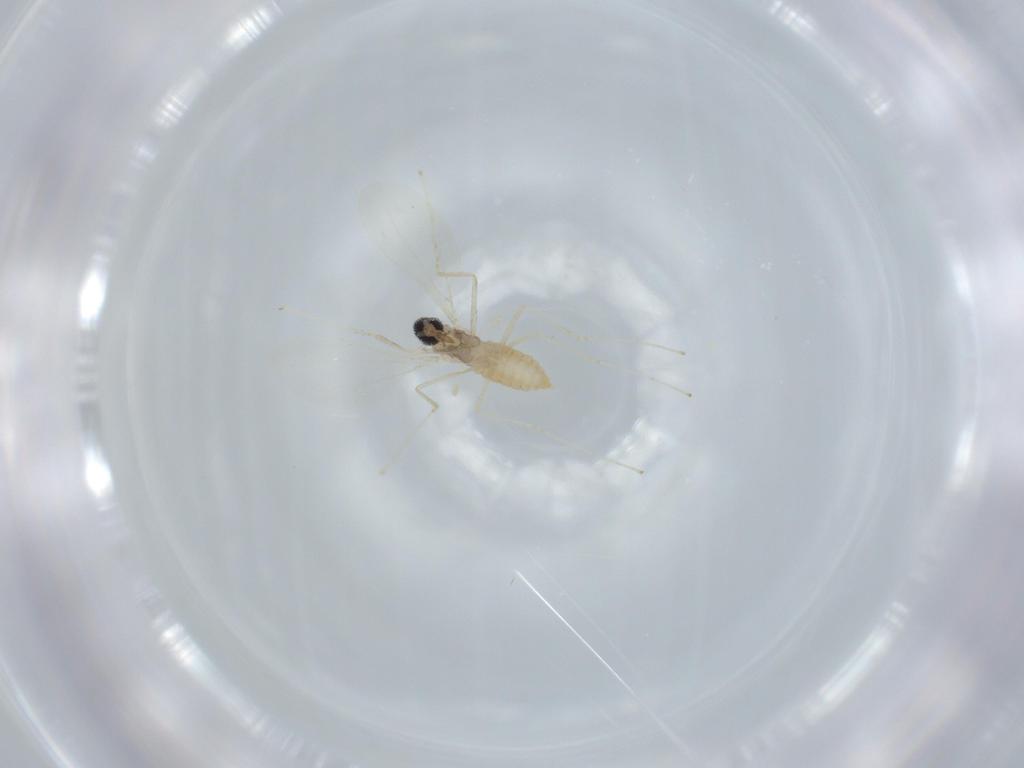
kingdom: Animalia
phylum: Arthropoda
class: Insecta
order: Diptera
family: Cecidomyiidae
